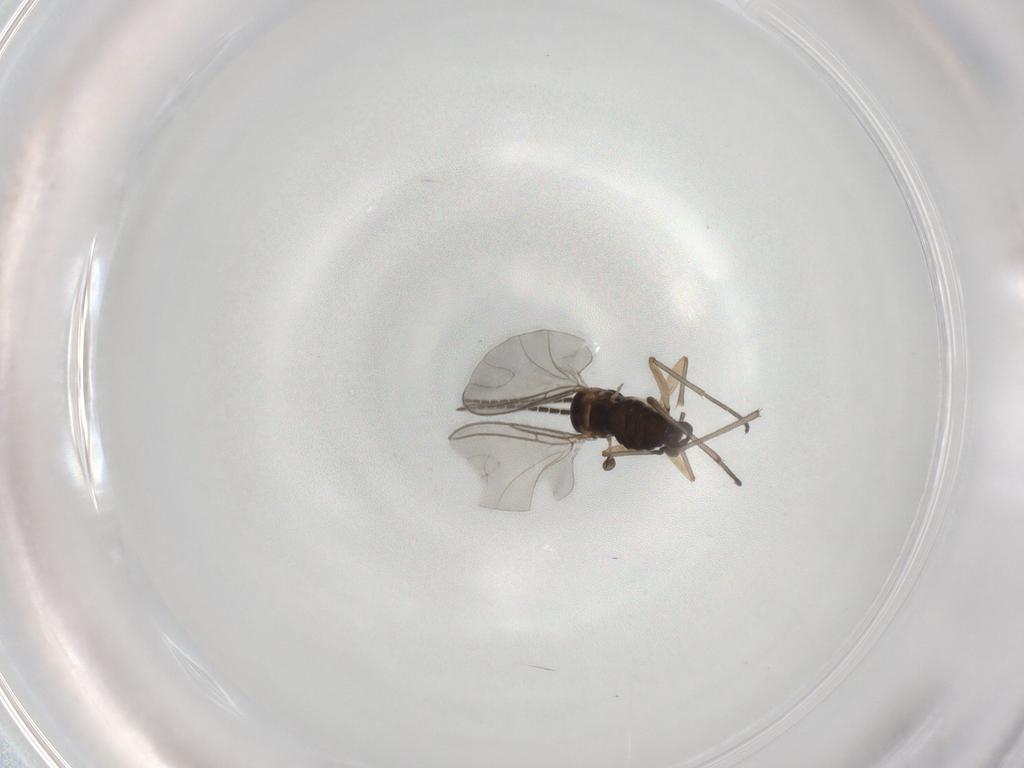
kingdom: Animalia
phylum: Arthropoda
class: Insecta
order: Diptera
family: Sciaridae
